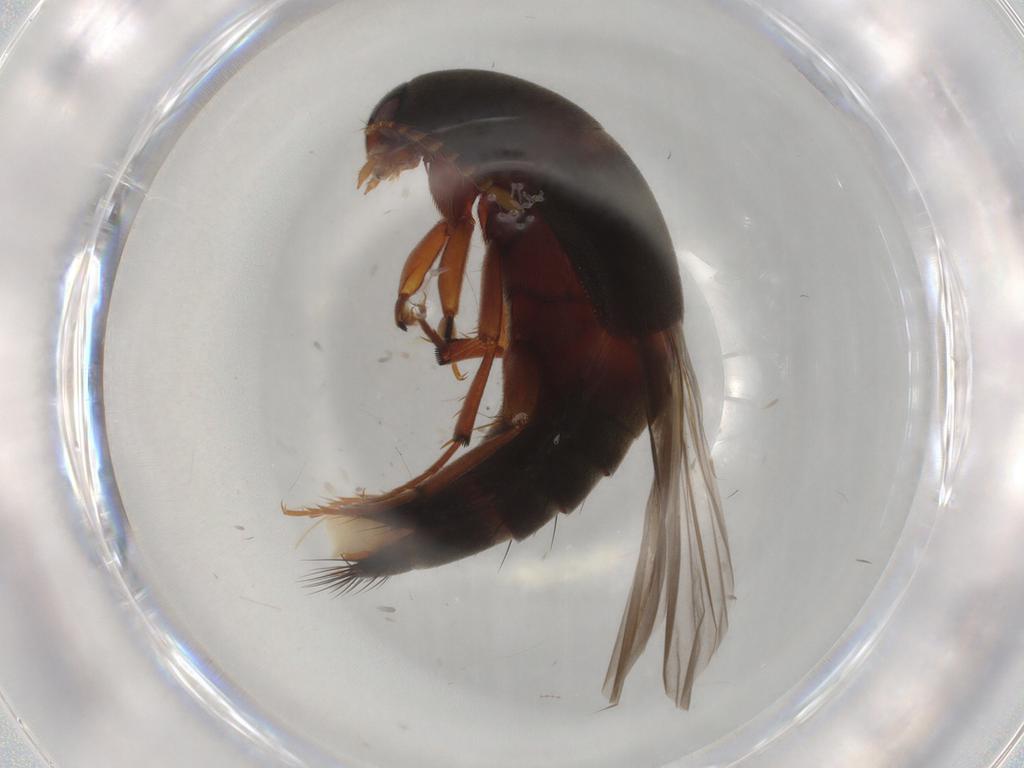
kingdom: Animalia
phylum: Arthropoda
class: Insecta
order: Coleoptera
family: Staphylinidae
